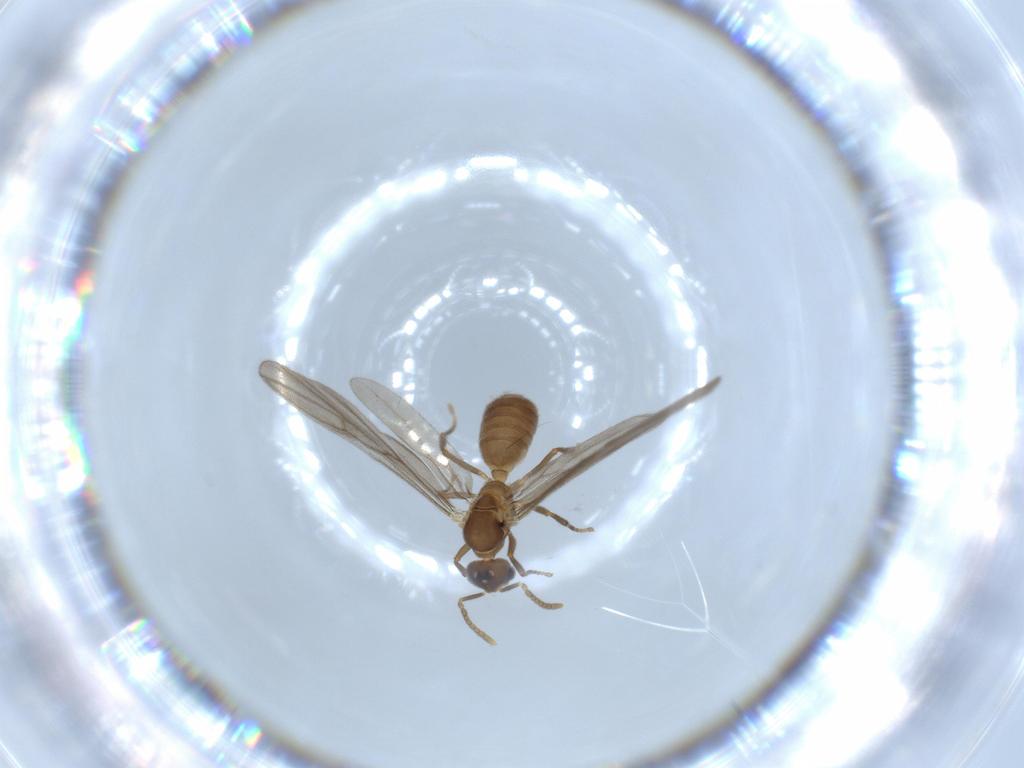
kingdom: Animalia
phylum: Arthropoda
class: Insecta
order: Hymenoptera
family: Formicidae
